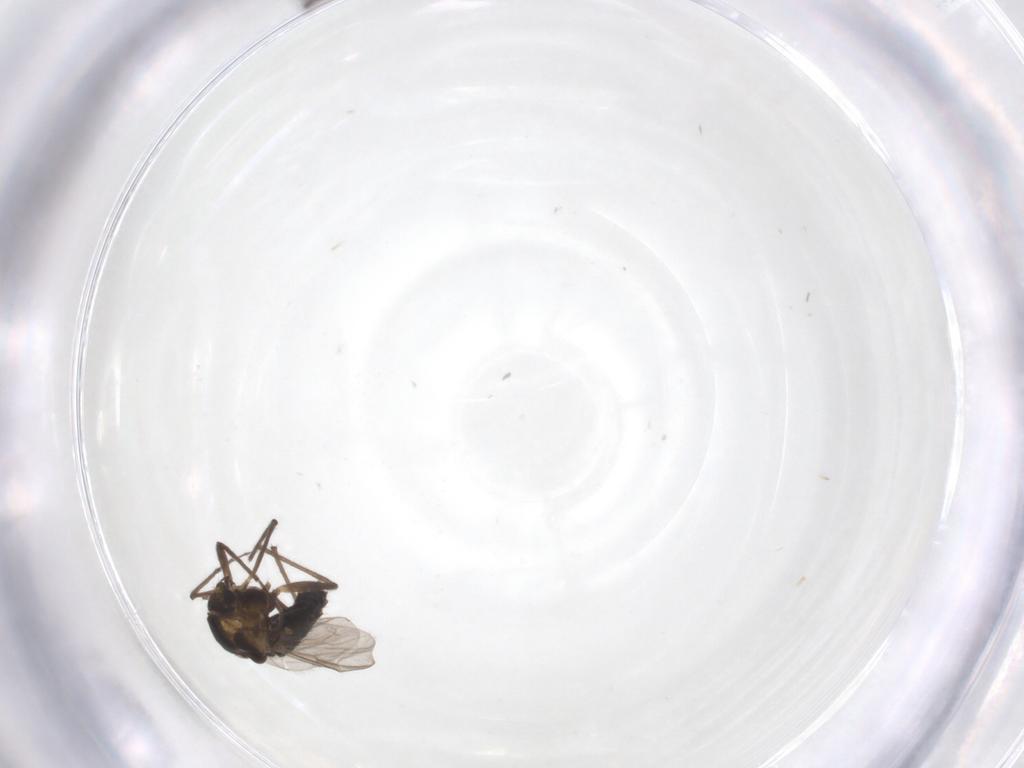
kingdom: Animalia
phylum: Arthropoda
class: Insecta
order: Diptera
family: Chironomidae
